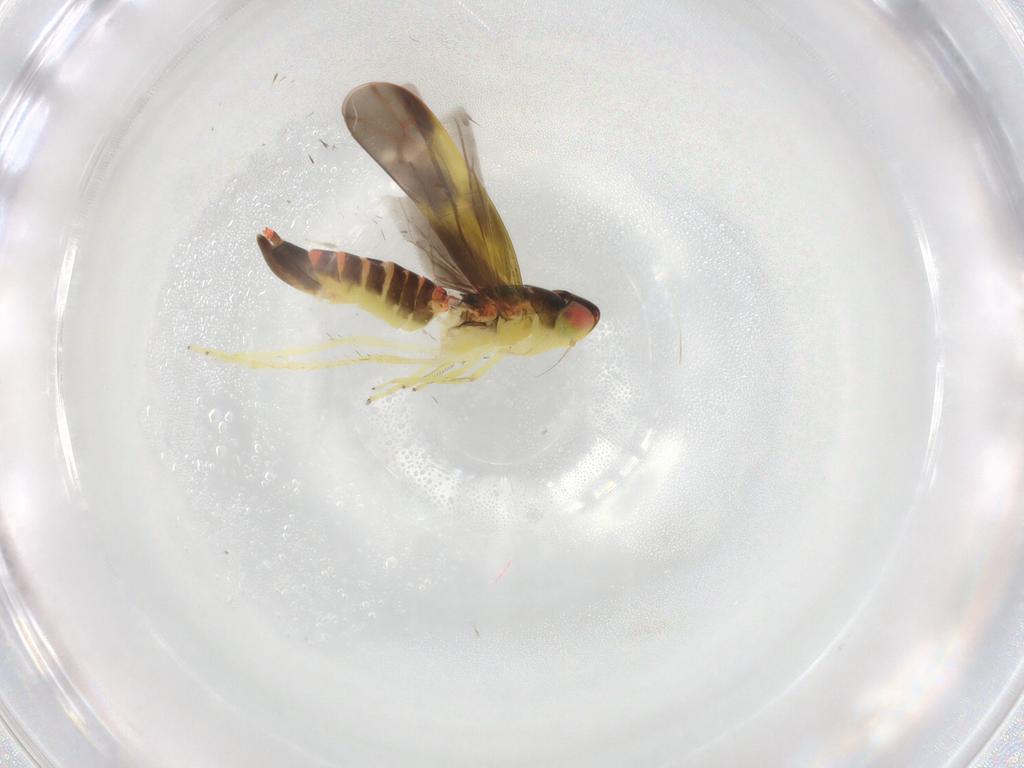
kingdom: Animalia
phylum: Arthropoda
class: Insecta
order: Hemiptera
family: Cicadellidae
